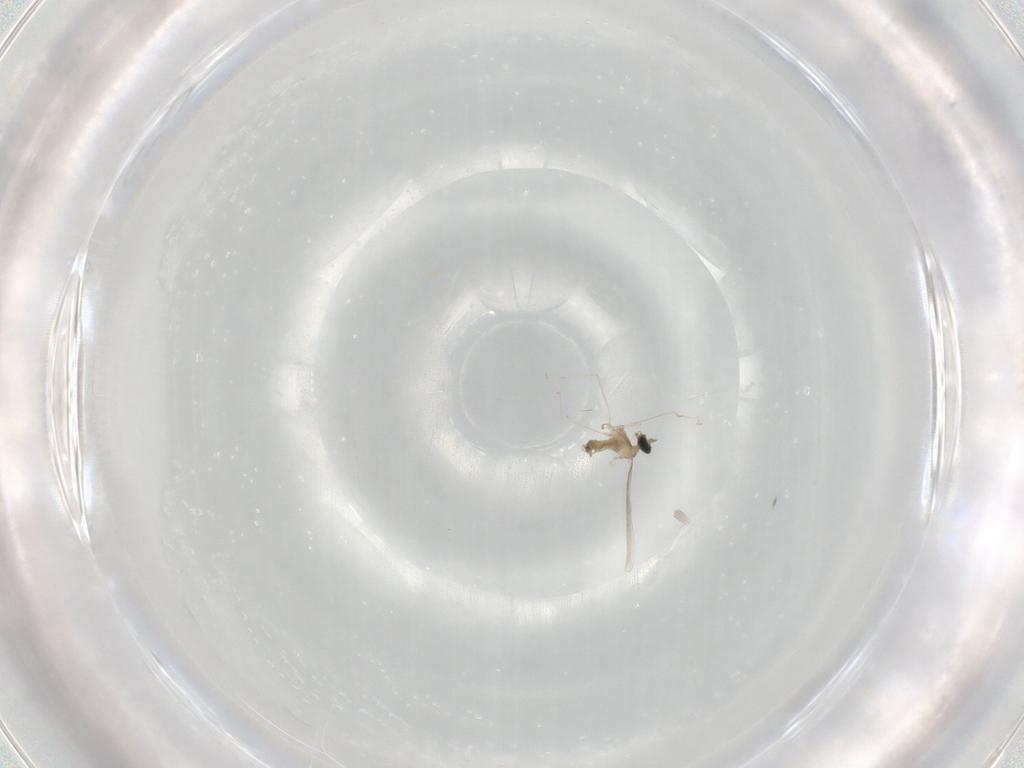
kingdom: Animalia
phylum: Arthropoda
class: Insecta
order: Diptera
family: Cecidomyiidae
